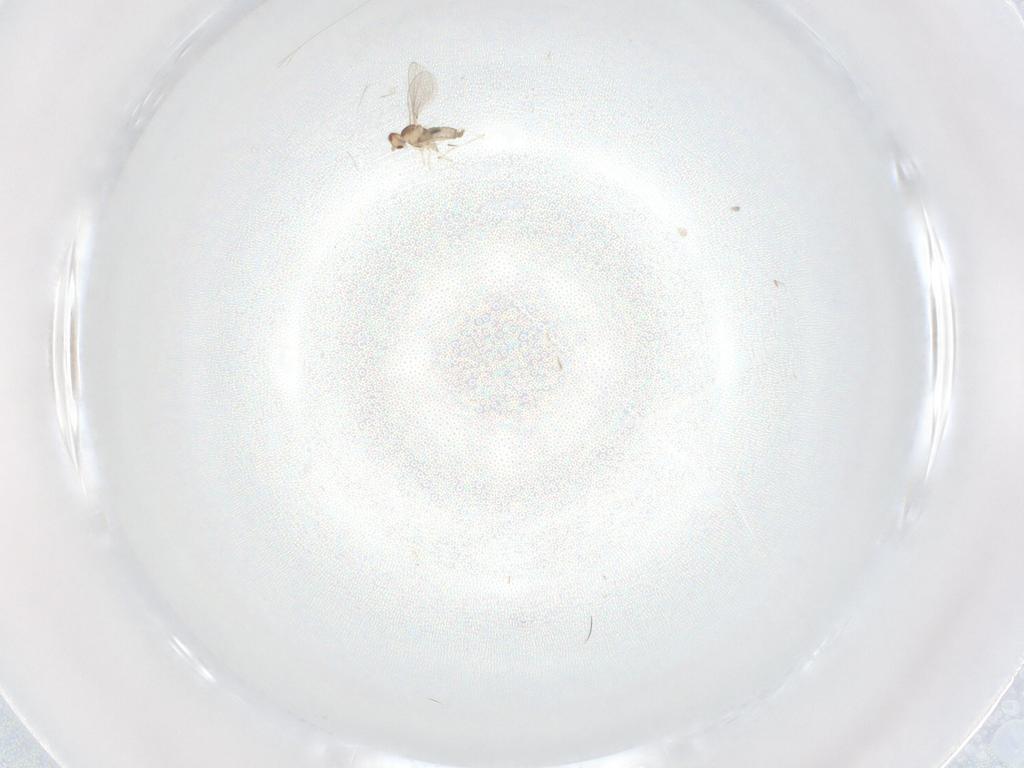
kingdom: Animalia
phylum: Arthropoda
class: Insecta
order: Diptera
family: Cecidomyiidae
